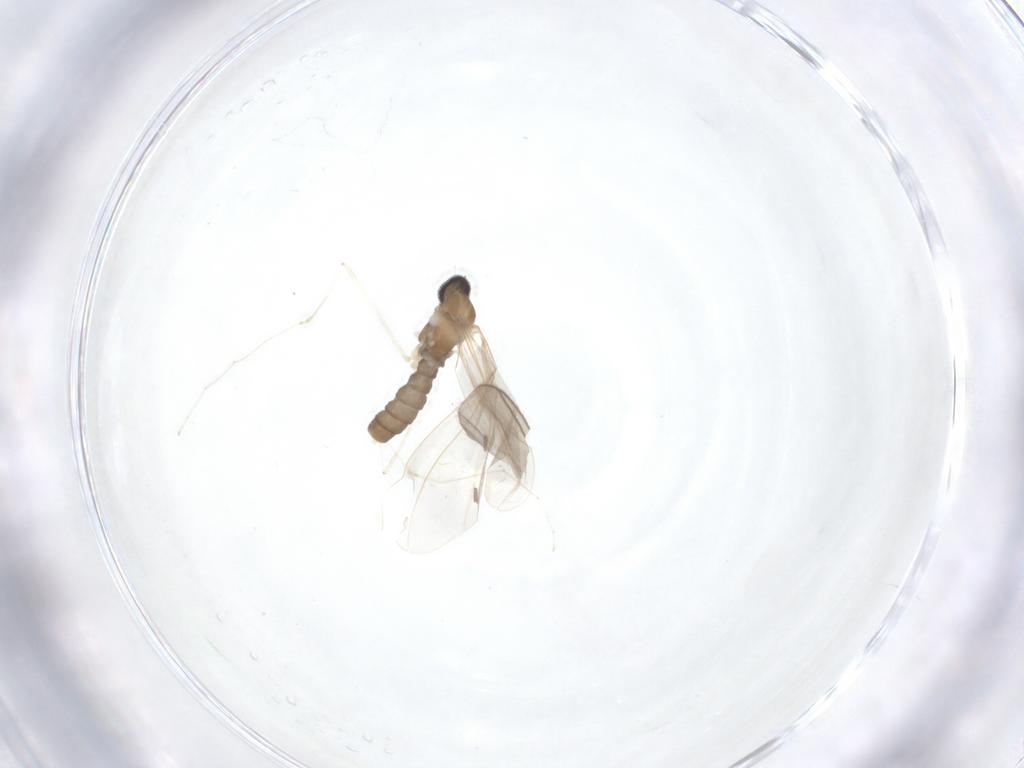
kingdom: Animalia
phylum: Arthropoda
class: Insecta
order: Diptera
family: Cecidomyiidae
